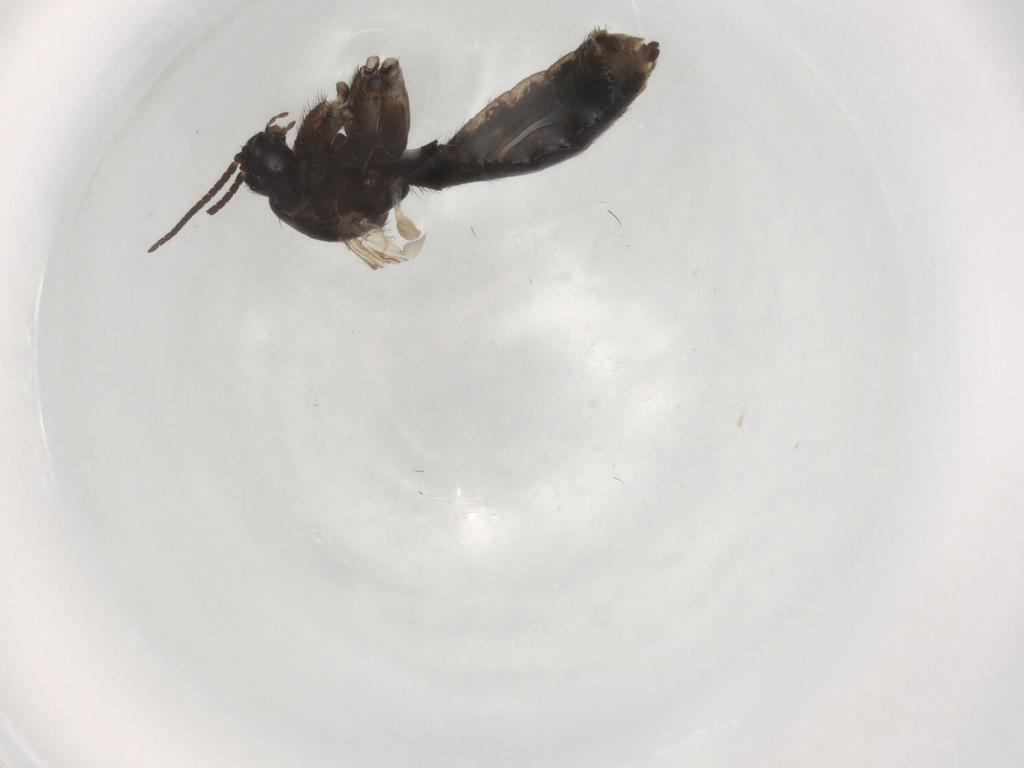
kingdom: Animalia
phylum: Arthropoda
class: Insecta
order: Diptera
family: Keroplatidae
